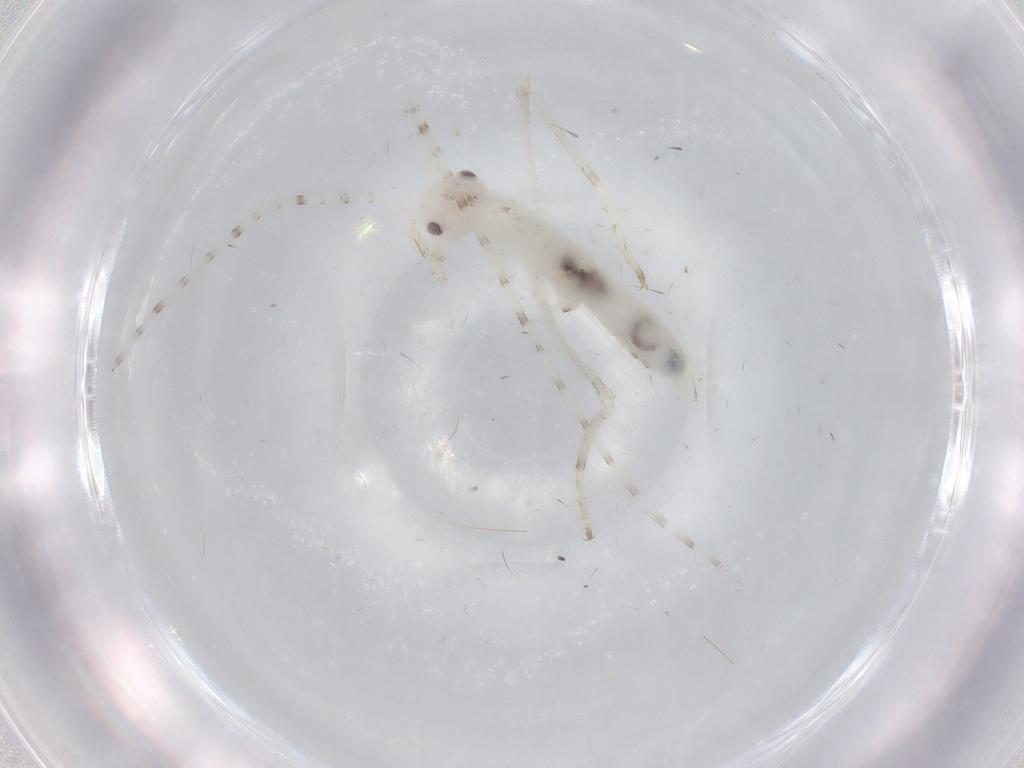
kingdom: Animalia
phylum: Arthropoda
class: Insecta
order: Orthoptera
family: Oecanthidae
